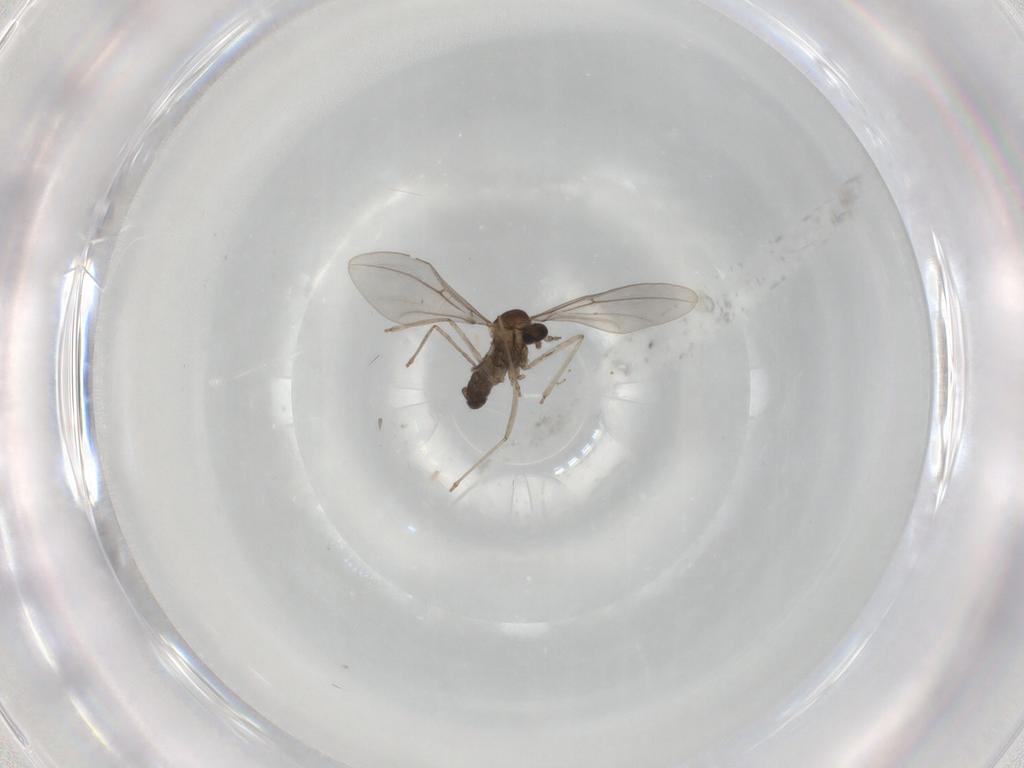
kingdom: Animalia
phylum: Arthropoda
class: Insecta
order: Diptera
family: Cecidomyiidae
